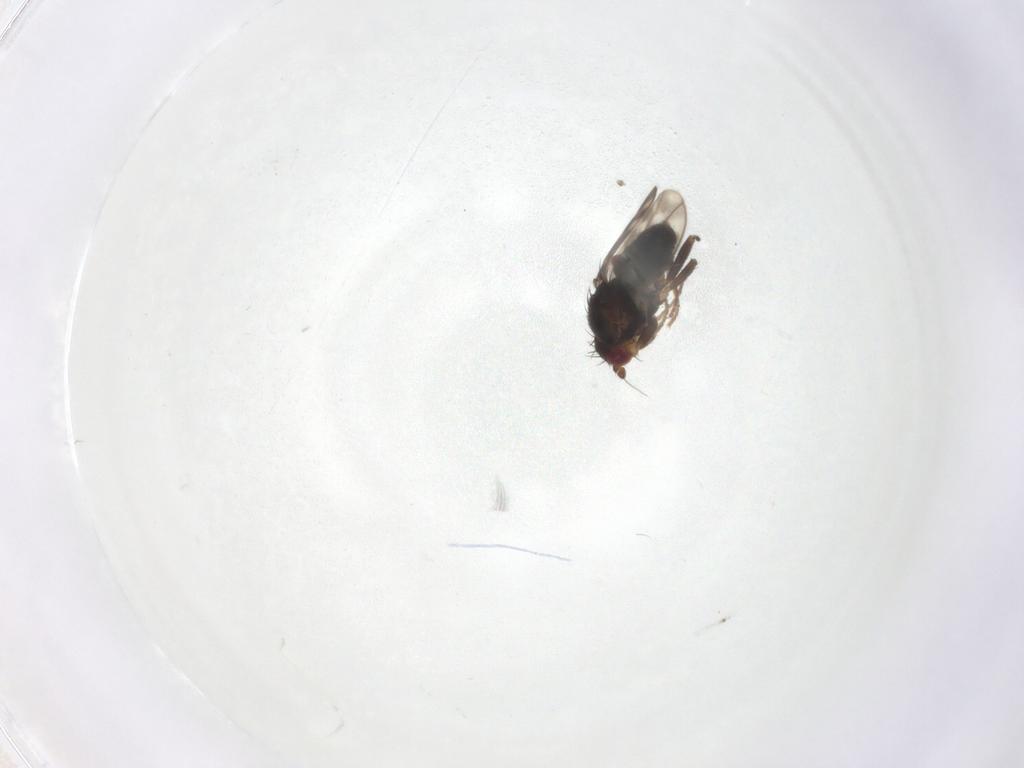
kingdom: Animalia
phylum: Arthropoda
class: Insecta
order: Diptera
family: Sphaeroceridae
